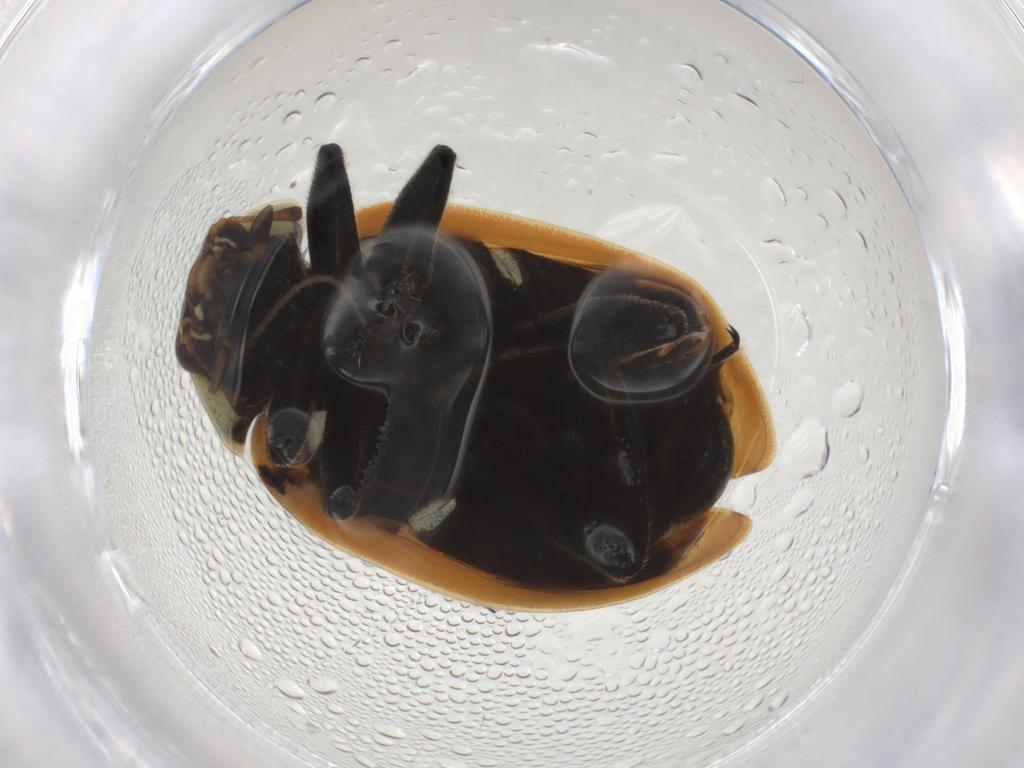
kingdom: Animalia
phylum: Arthropoda
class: Insecta
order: Coleoptera
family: Coccinellidae
